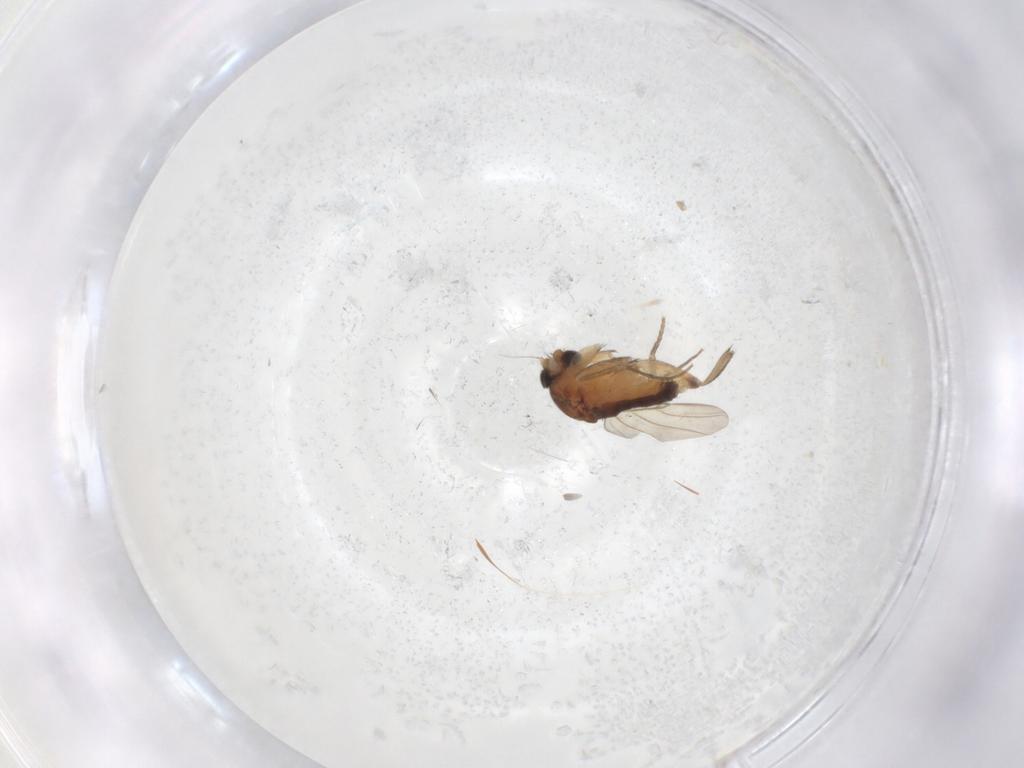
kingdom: Animalia
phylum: Arthropoda
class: Insecta
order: Diptera
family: Phoridae
